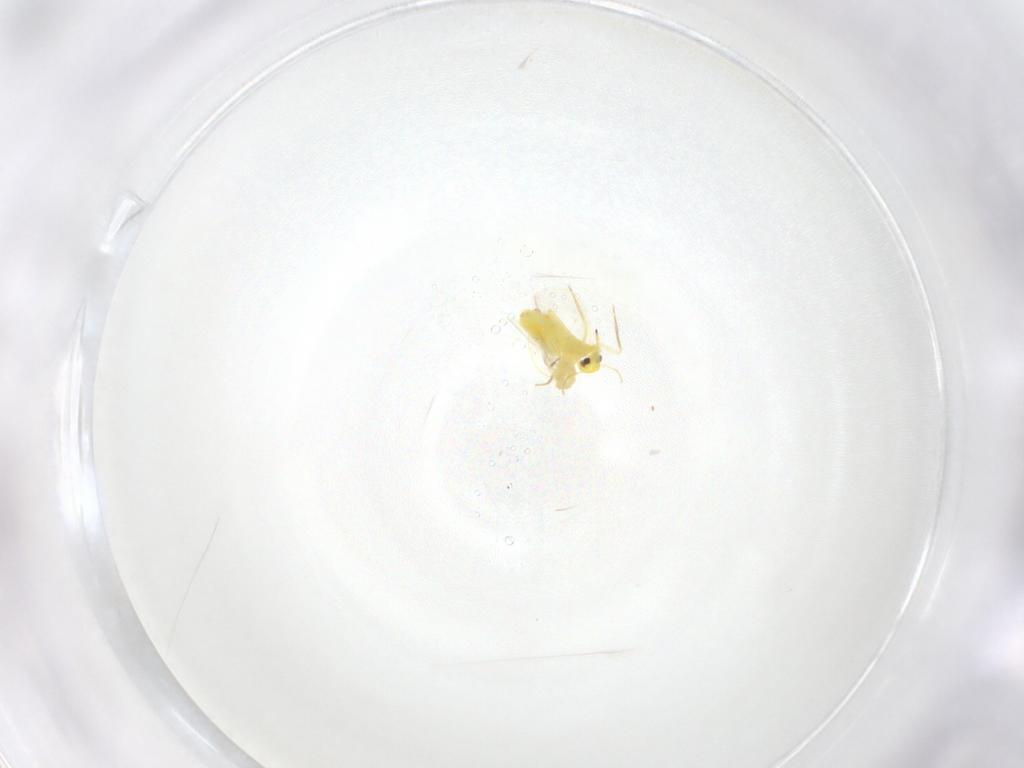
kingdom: Animalia
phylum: Arthropoda
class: Insecta
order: Hemiptera
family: Aleyrodidae
